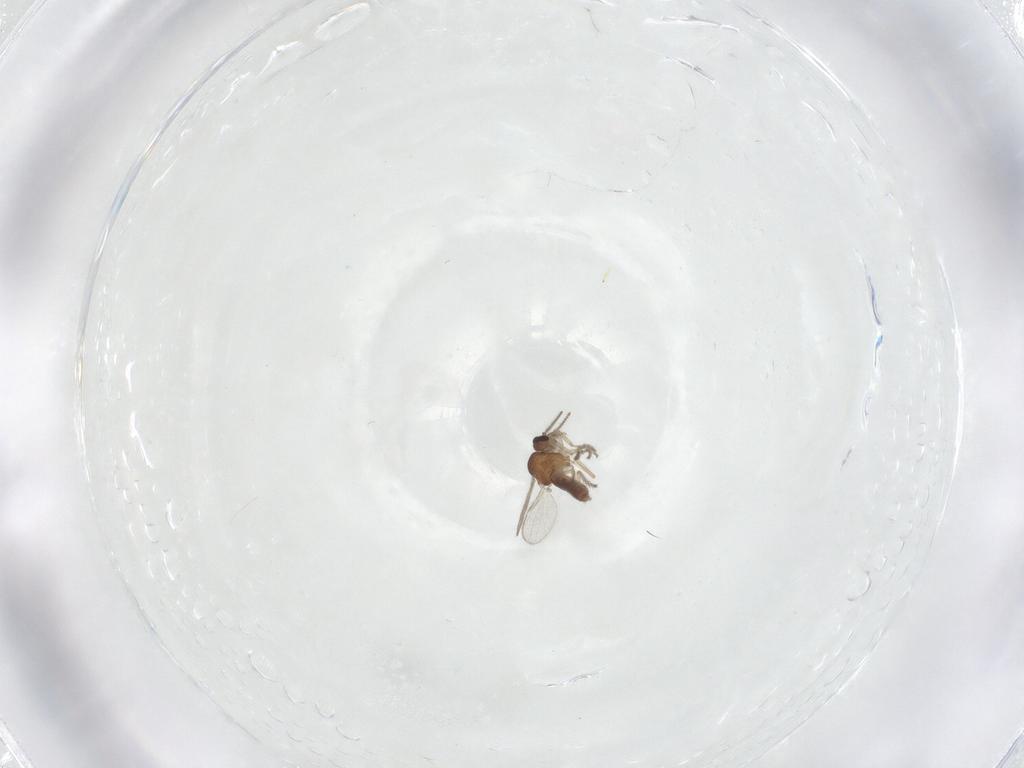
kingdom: Animalia
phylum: Arthropoda
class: Insecta
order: Diptera
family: Ceratopogonidae
